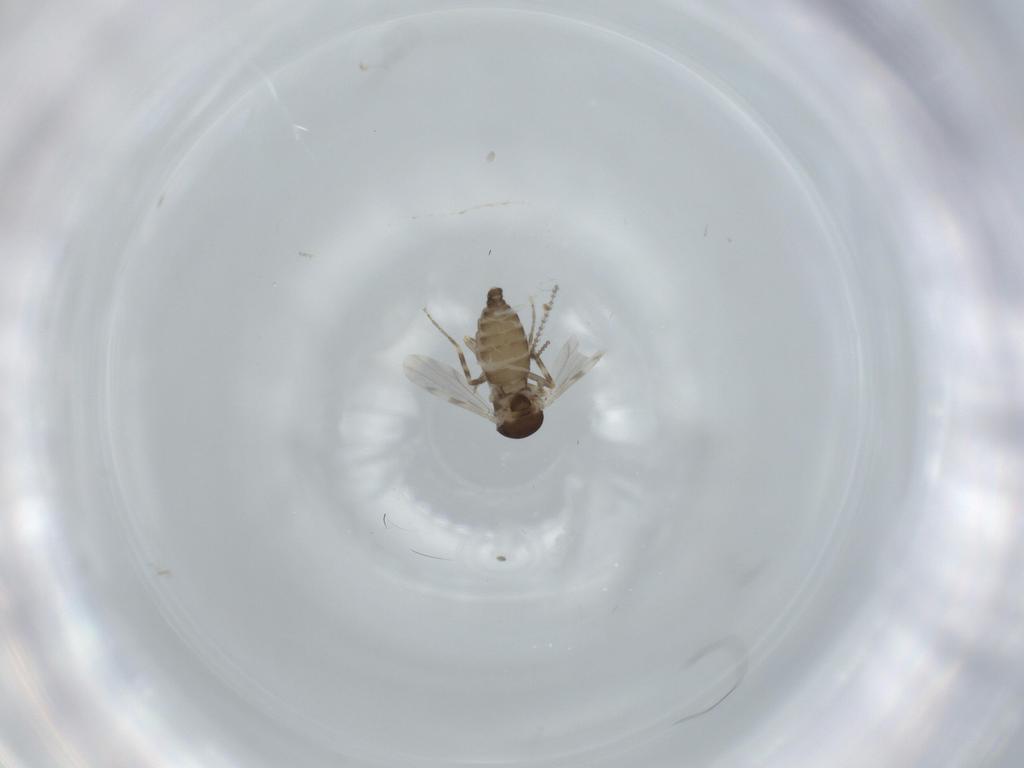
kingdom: Animalia
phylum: Arthropoda
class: Insecta
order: Diptera
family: Ceratopogonidae
